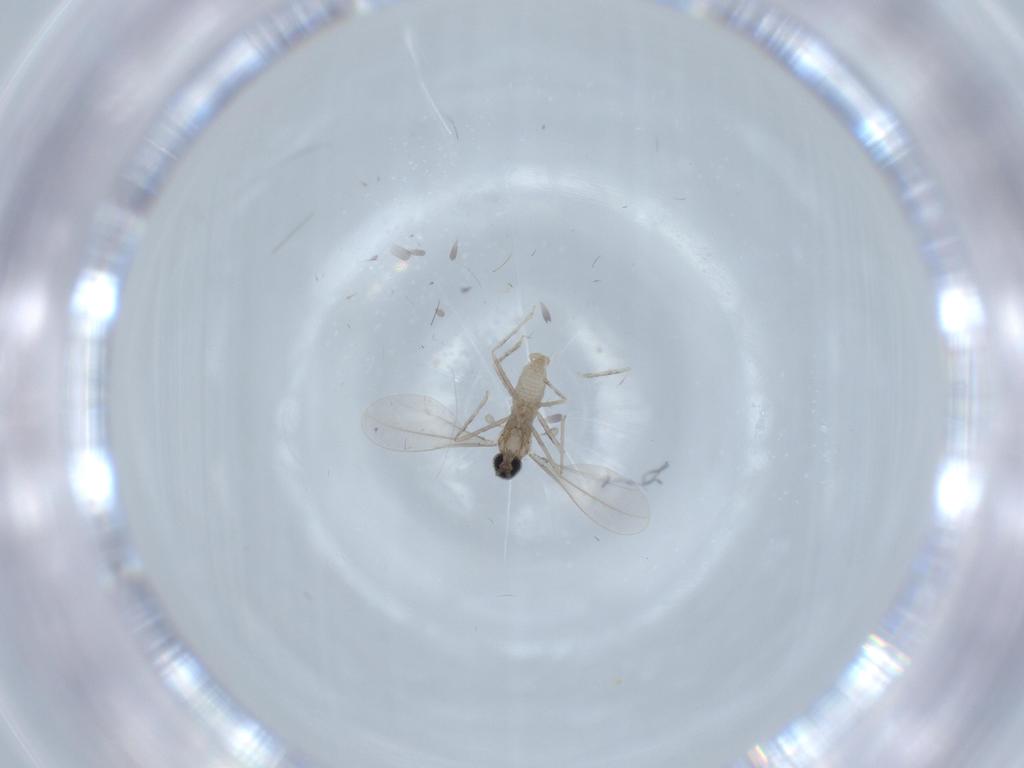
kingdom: Animalia
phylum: Arthropoda
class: Insecta
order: Diptera
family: Cecidomyiidae
